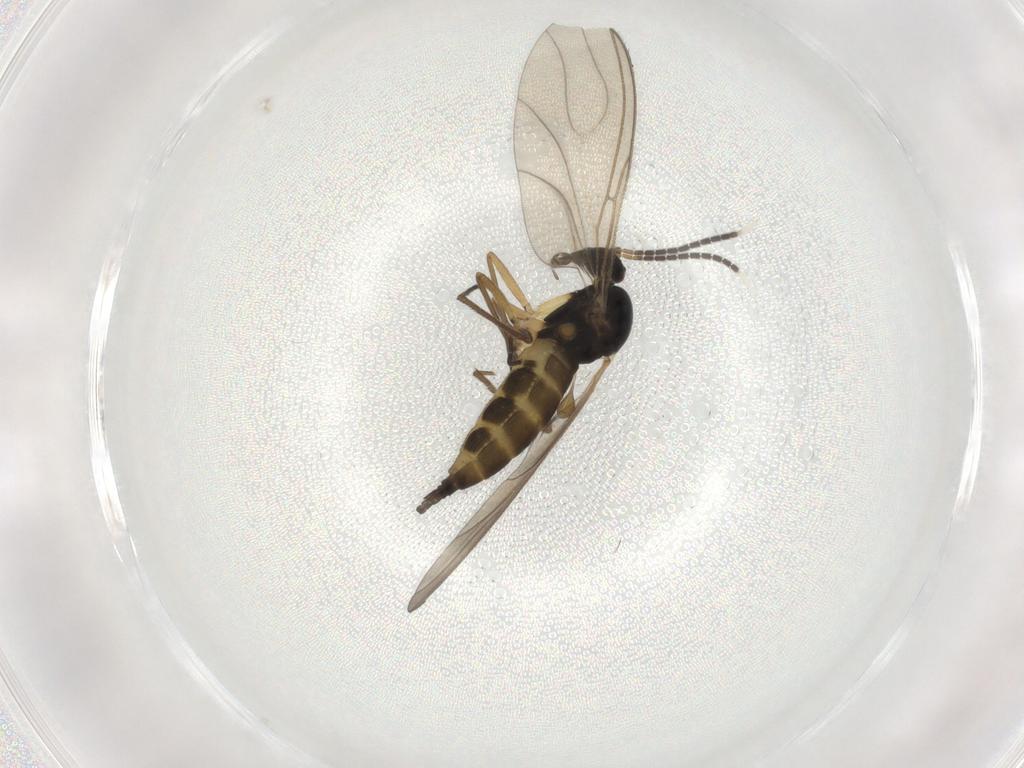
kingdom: Animalia
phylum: Arthropoda
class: Insecta
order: Diptera
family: Sciaridae
